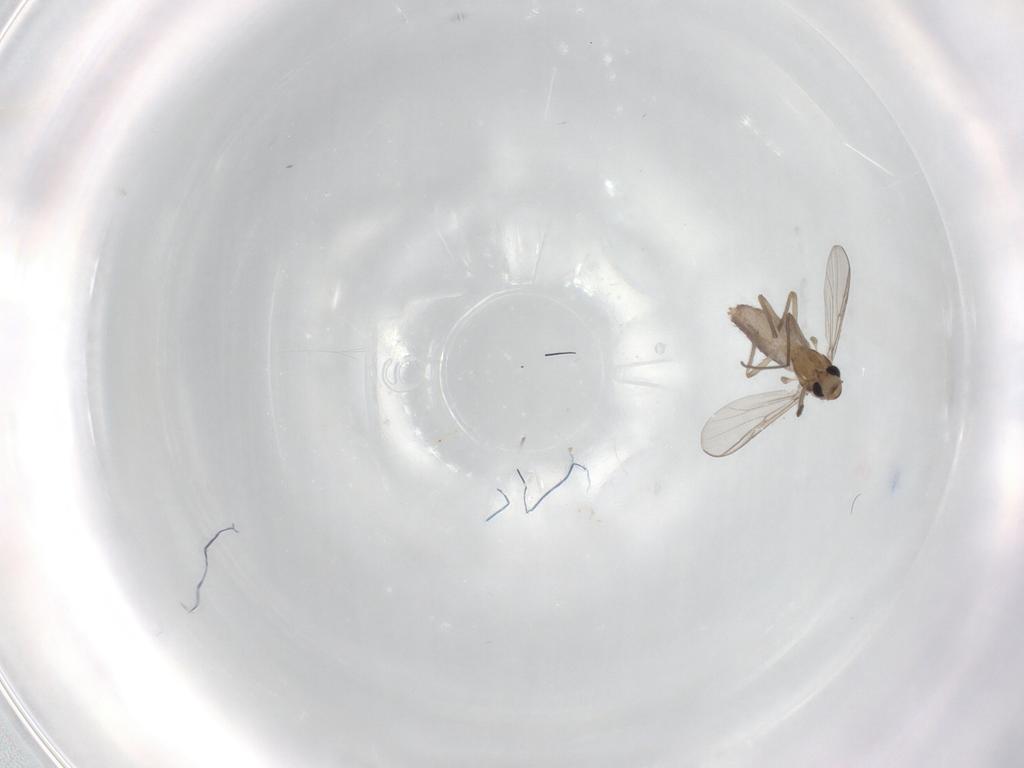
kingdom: Animalia
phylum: Arthropoda
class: Insecta
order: Diptera
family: Chironomidae
